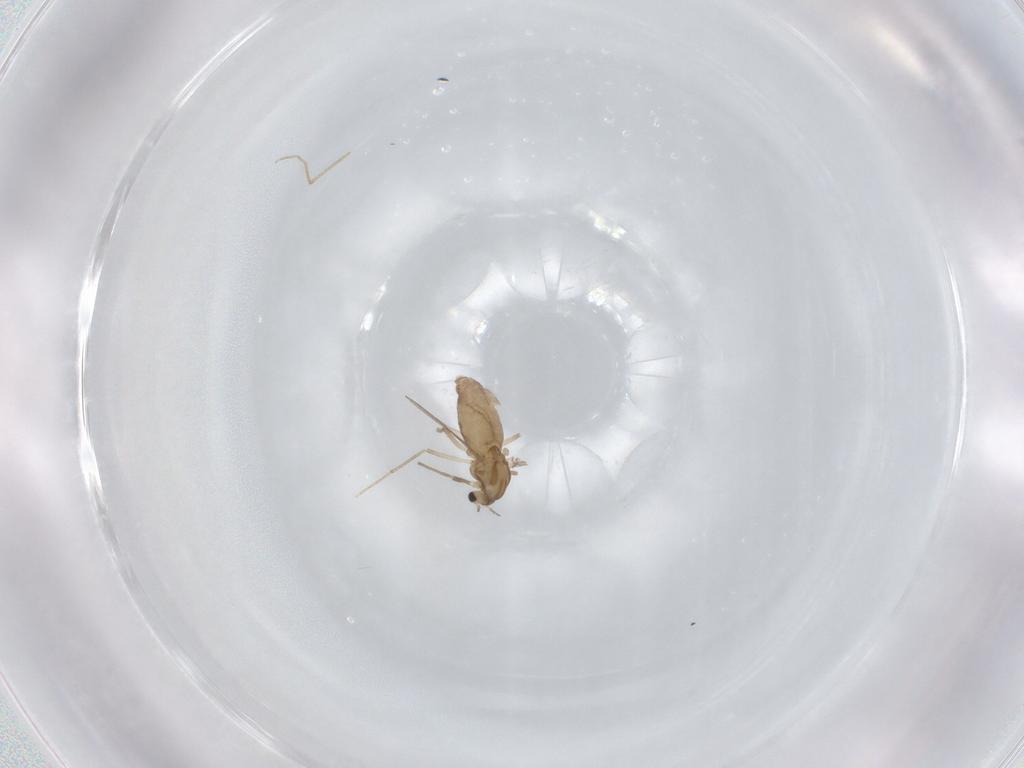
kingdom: Animalia
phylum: Arthropoda
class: Insecta
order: Diptera
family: Chironomidae
